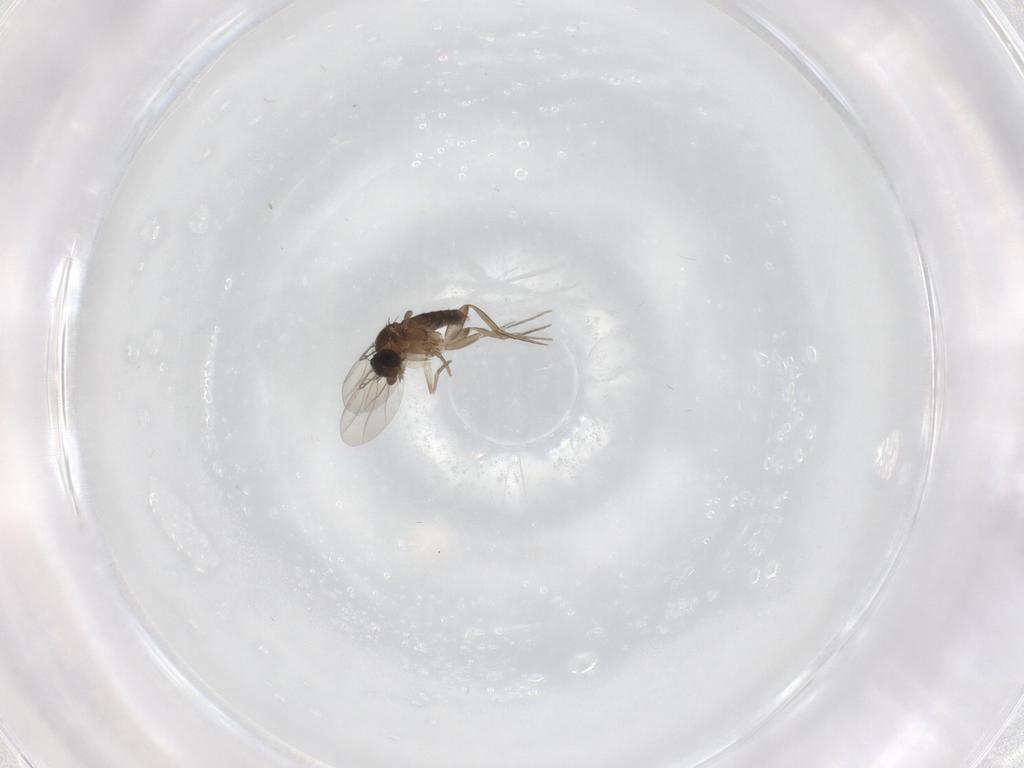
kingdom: Animalia
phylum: Arthropoda
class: Insecta
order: Diptera
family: Phoridae
